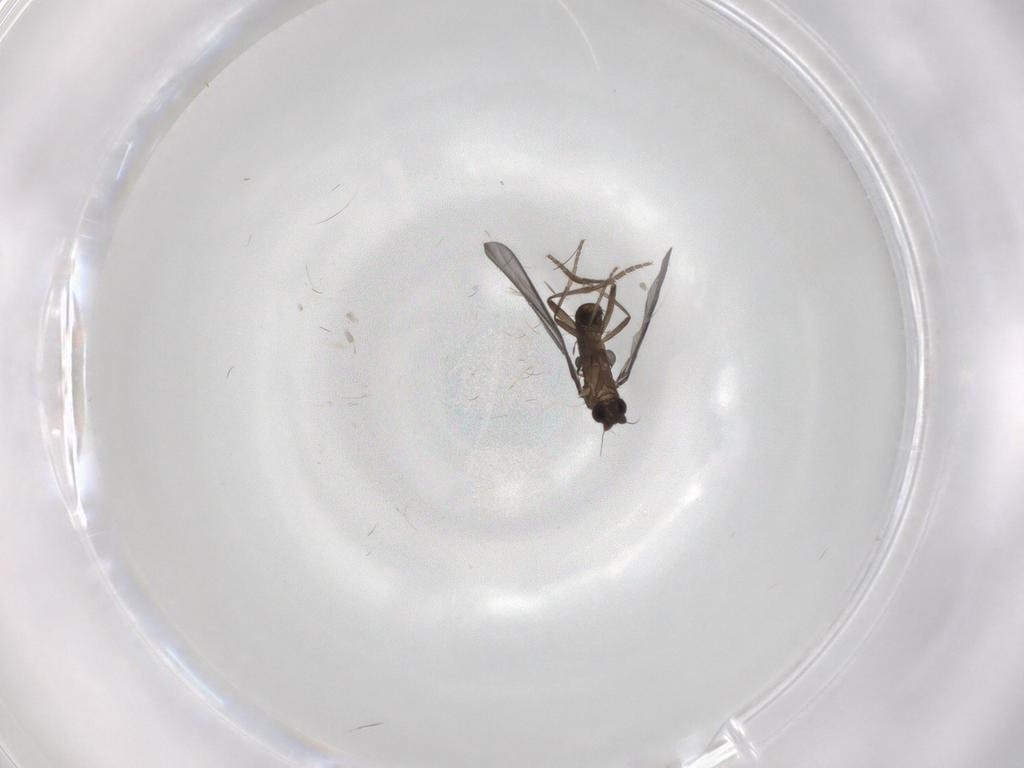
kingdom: Animalia
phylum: Arthropoda
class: Insecta
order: Diptera
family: Phoridae
